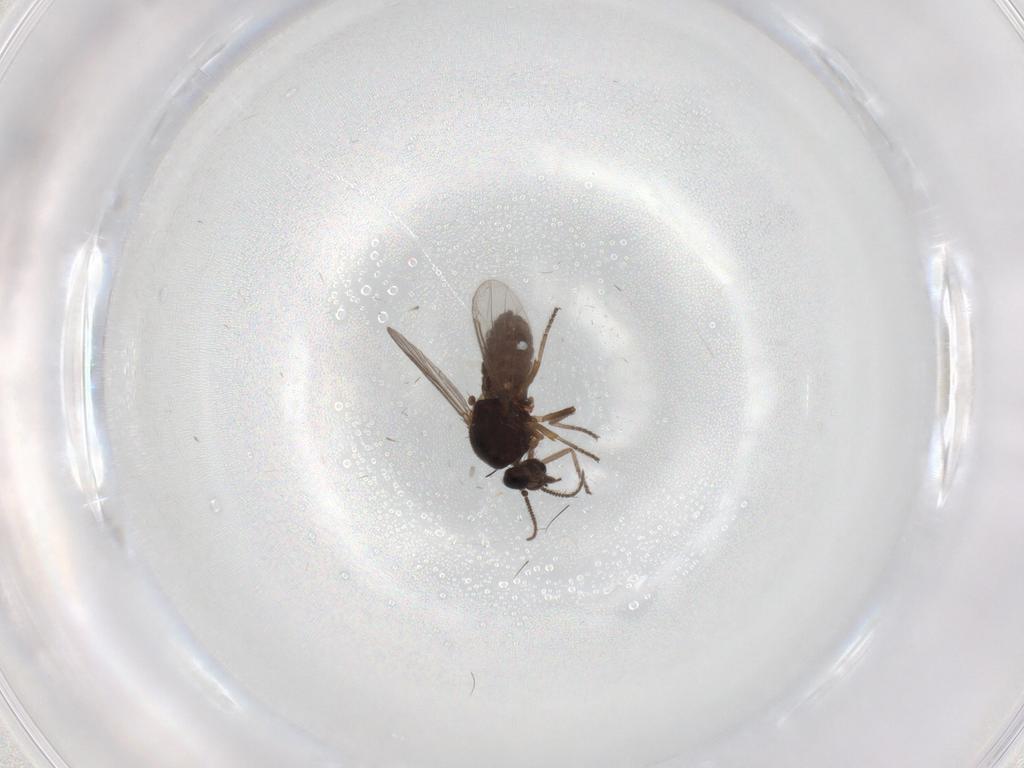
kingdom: Animalia
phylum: Arthropoda
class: Insecta
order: Diptera
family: Ceratopogonidae
